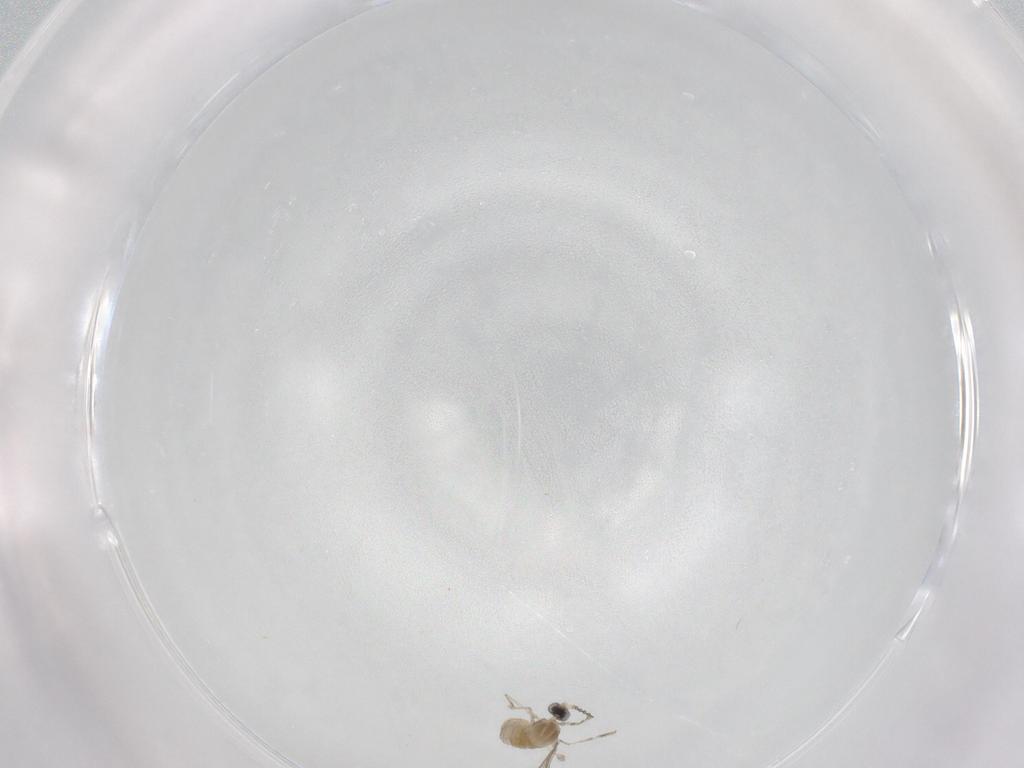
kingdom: Animalia
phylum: Arthropoda
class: Insecta
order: Diptera
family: Cecidomyiidae
